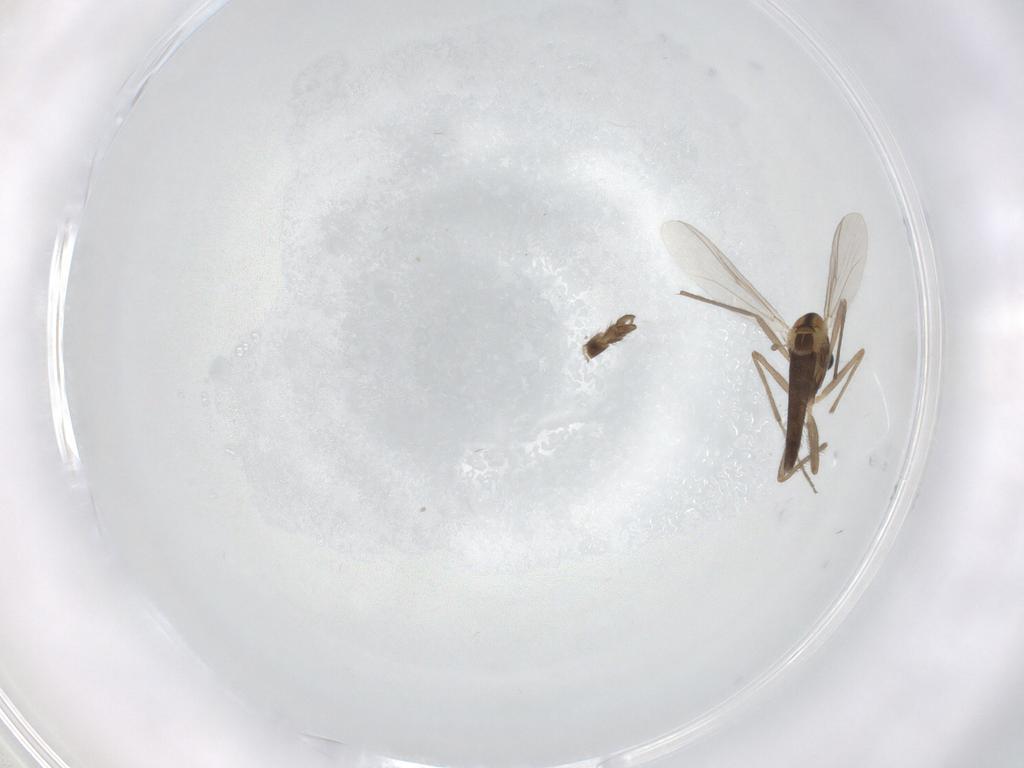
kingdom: Animalia
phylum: Arthropoda
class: Insecta
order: Diptera
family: Chironomidae
